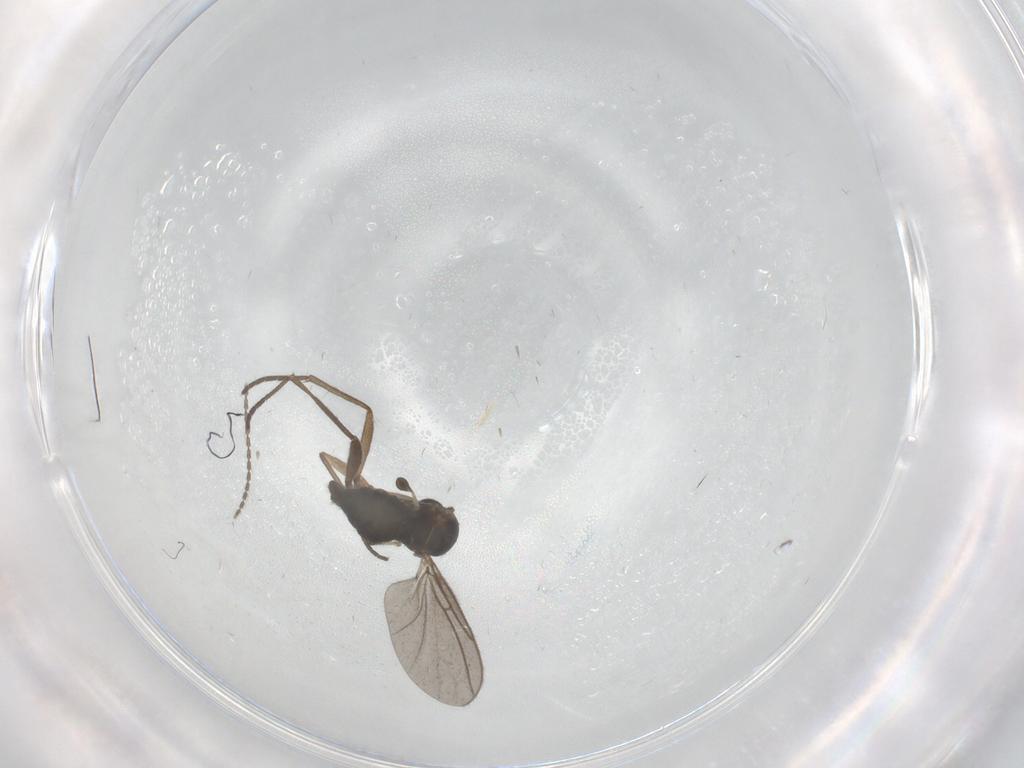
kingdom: Animalia
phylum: Arthropoda
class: Insecta
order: Diptera
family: Sciaridae
